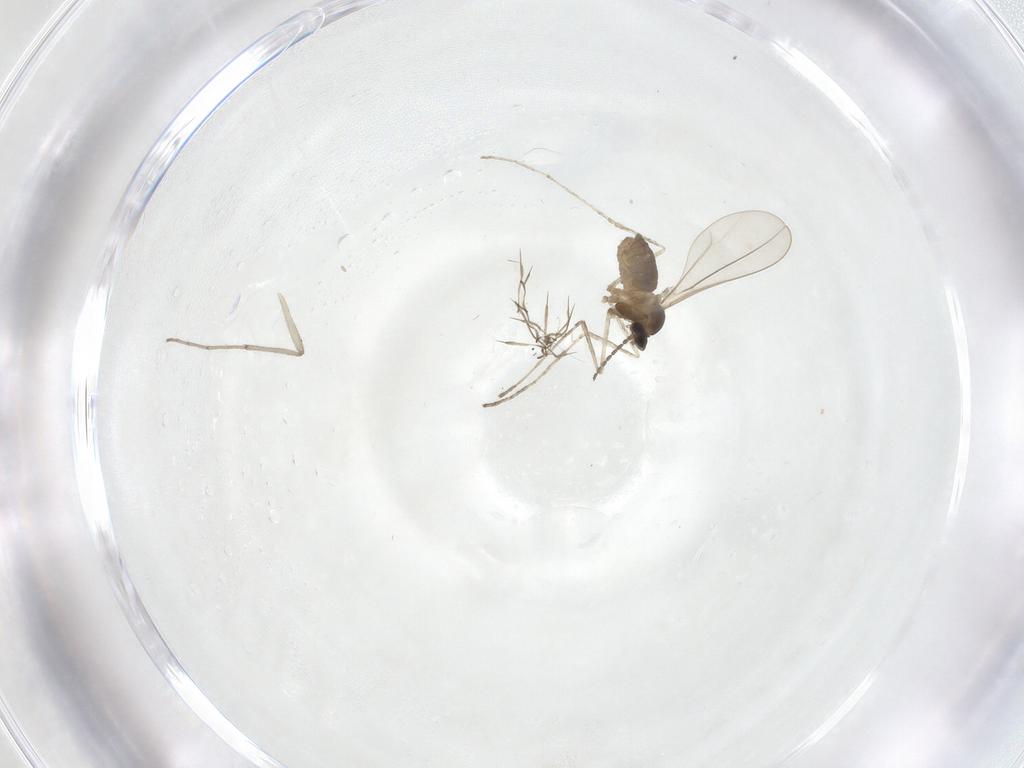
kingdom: Animalia
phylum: Arthropoda
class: Insecta
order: Diptera
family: Cecidomyiidae
